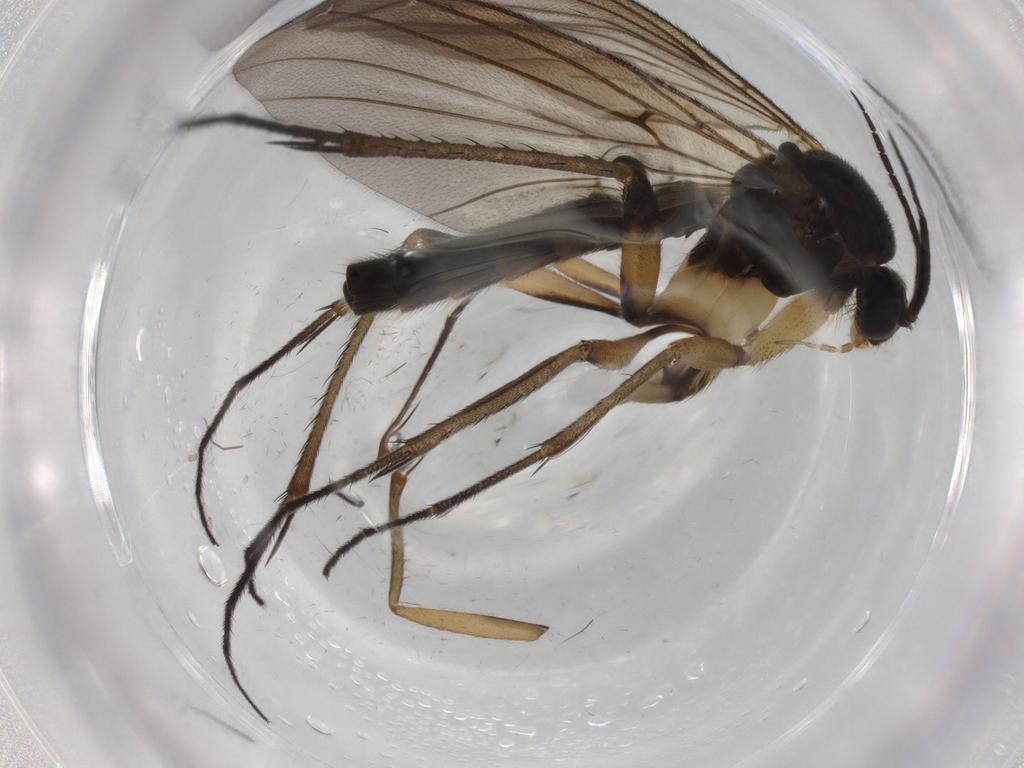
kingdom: Animalia
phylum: Arthropoda
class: Insecta
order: Diptera
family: Mycetophilidae
